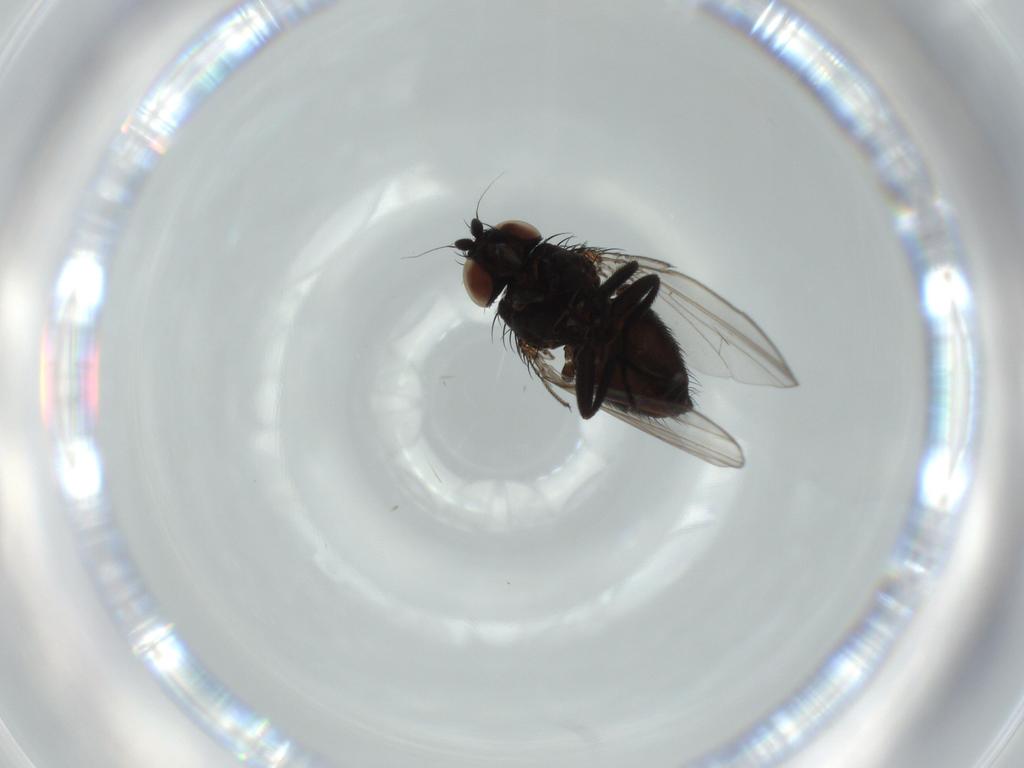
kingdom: Animalia
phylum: Arthropoda
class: Insecta
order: Diptera
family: Milichiidae
